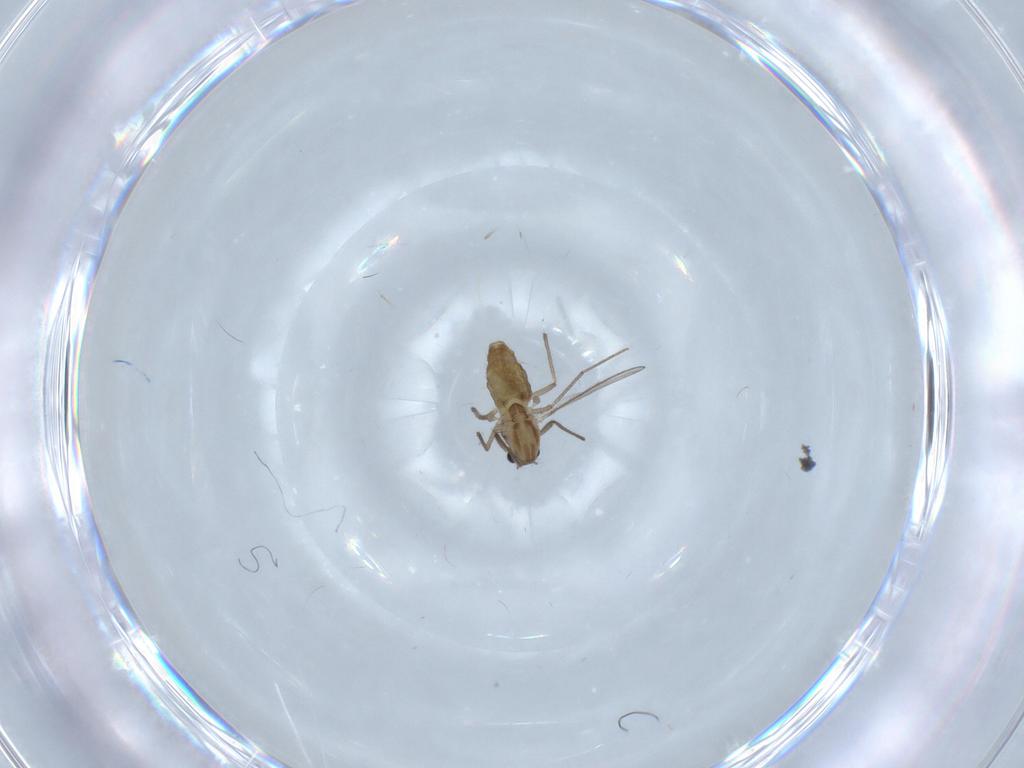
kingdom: Animalia
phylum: Arthropoda
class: Insecta
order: Diptera
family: Chironomidae
